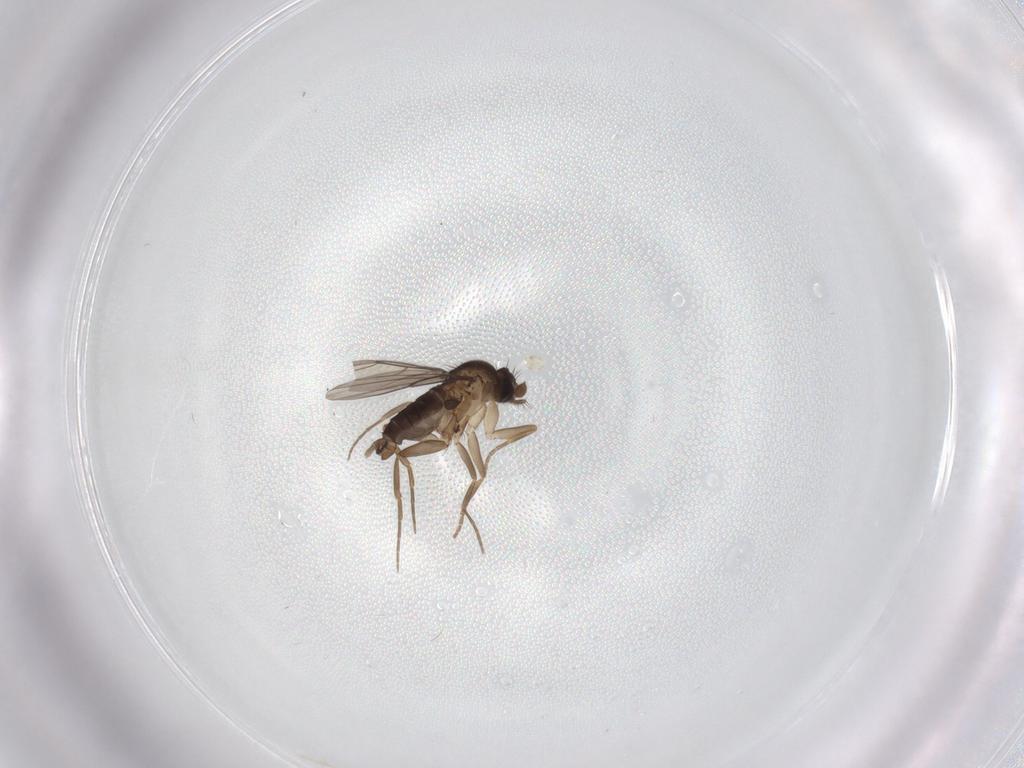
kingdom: Animalia
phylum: Arthropoda
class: Insecta
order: Diptera
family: Phoridae
